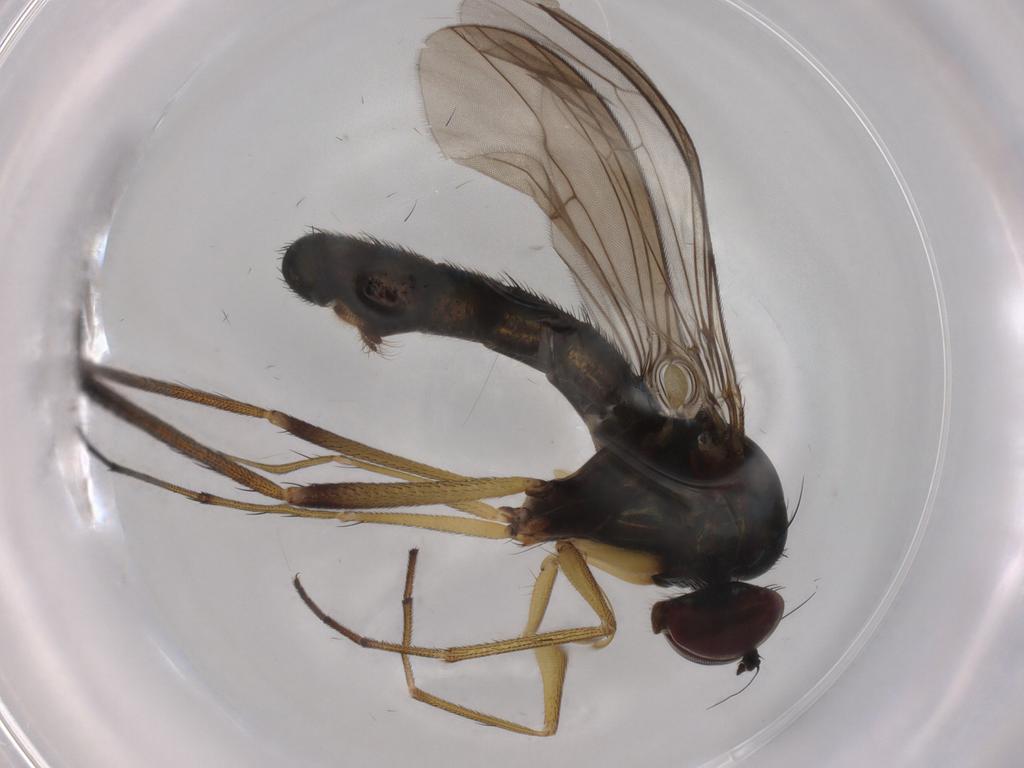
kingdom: Animalia
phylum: Arthropoda
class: Insecta
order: Diptera
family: Dolichopodidae
